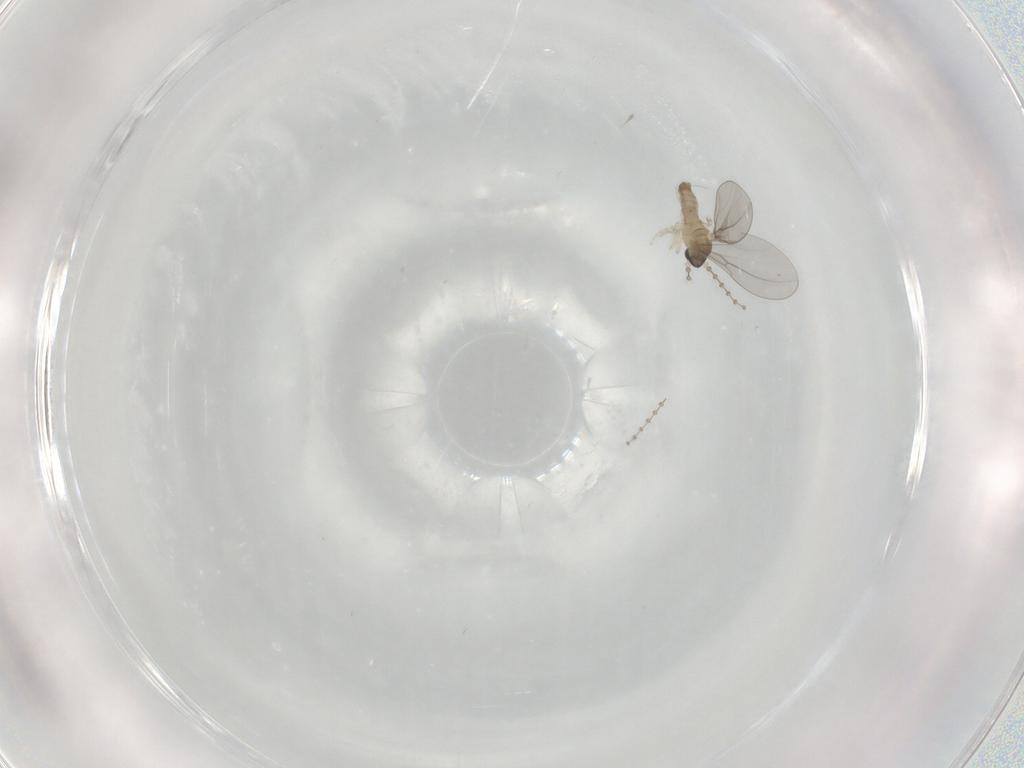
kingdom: Animalia
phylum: Arthropoda
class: Insecta
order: Diptera
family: Cecidomyiidae
